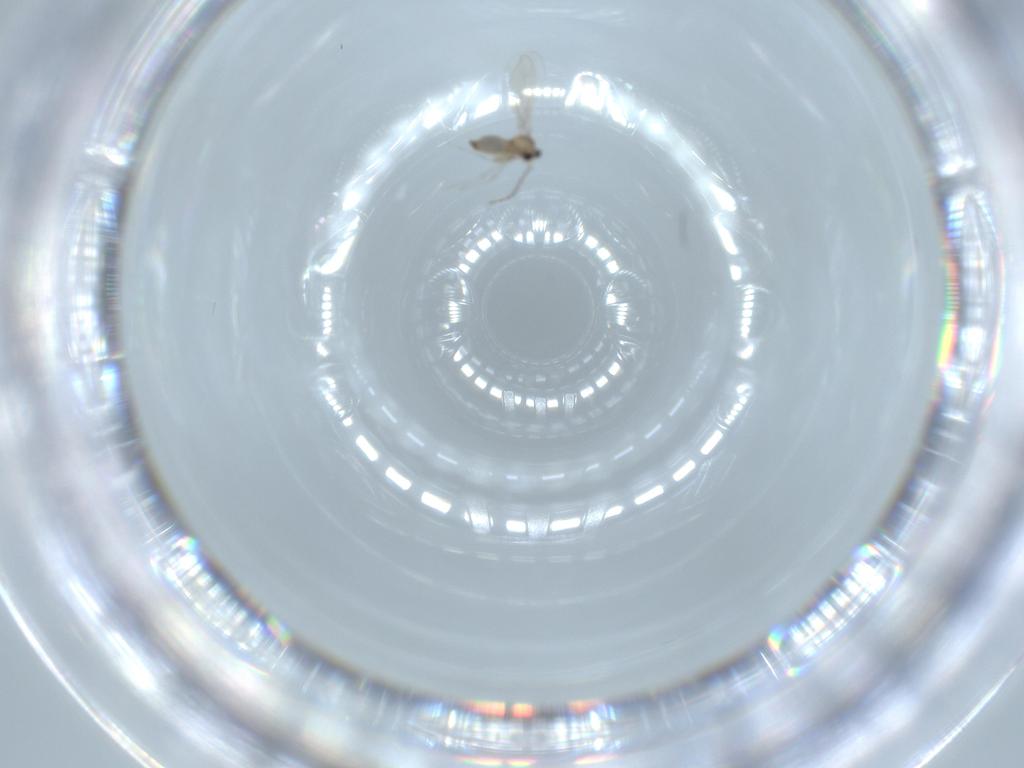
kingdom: Animalia
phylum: Arthropoda
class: Insecta
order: Diptera
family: Cecidomyiidae
